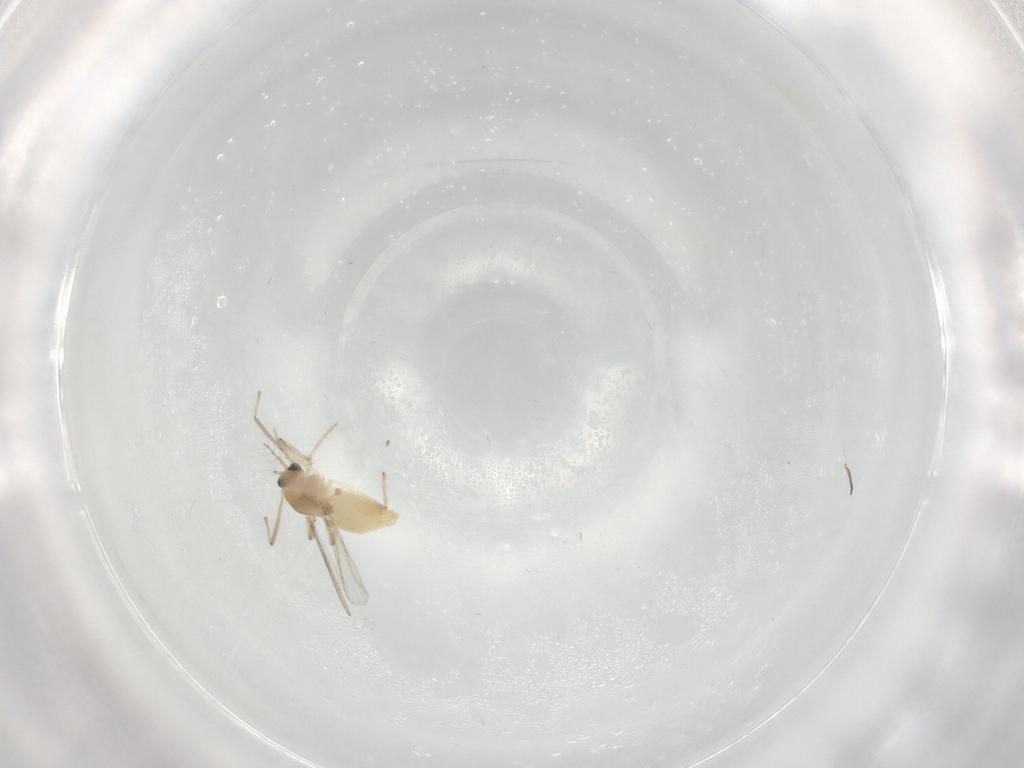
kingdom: Animalia
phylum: Arthropoda
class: Insecta
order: Diptera
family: Chironomidae
